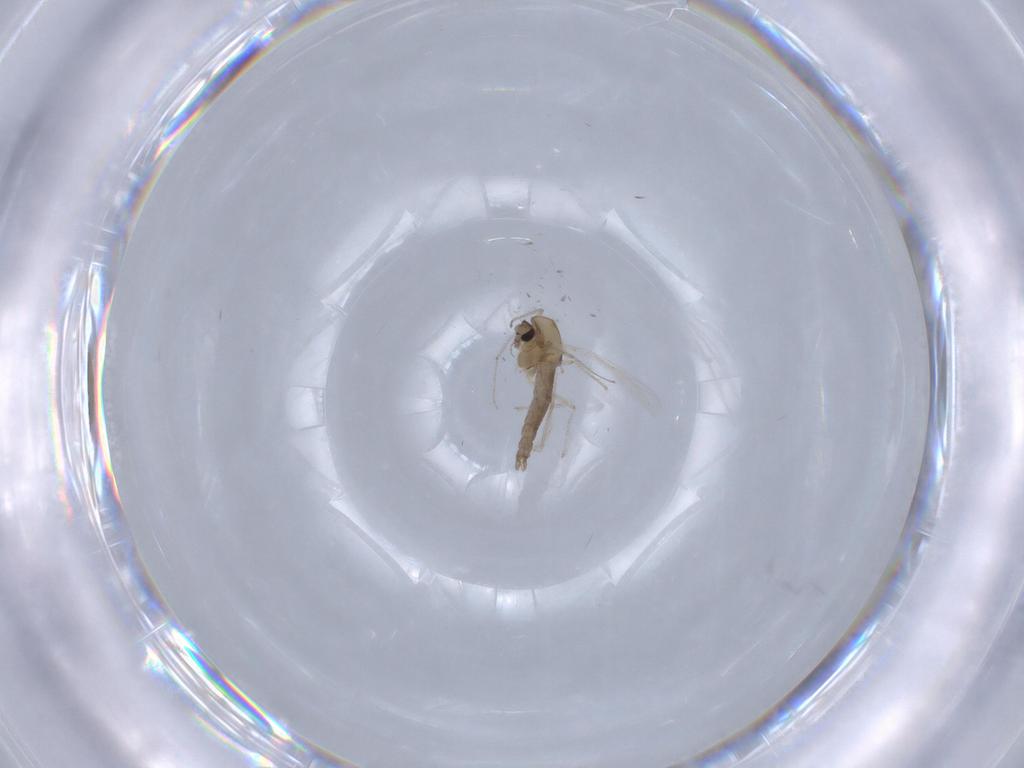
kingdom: Animalia
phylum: Arthropoda
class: Insecta
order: Diptera
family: Chironomidae
